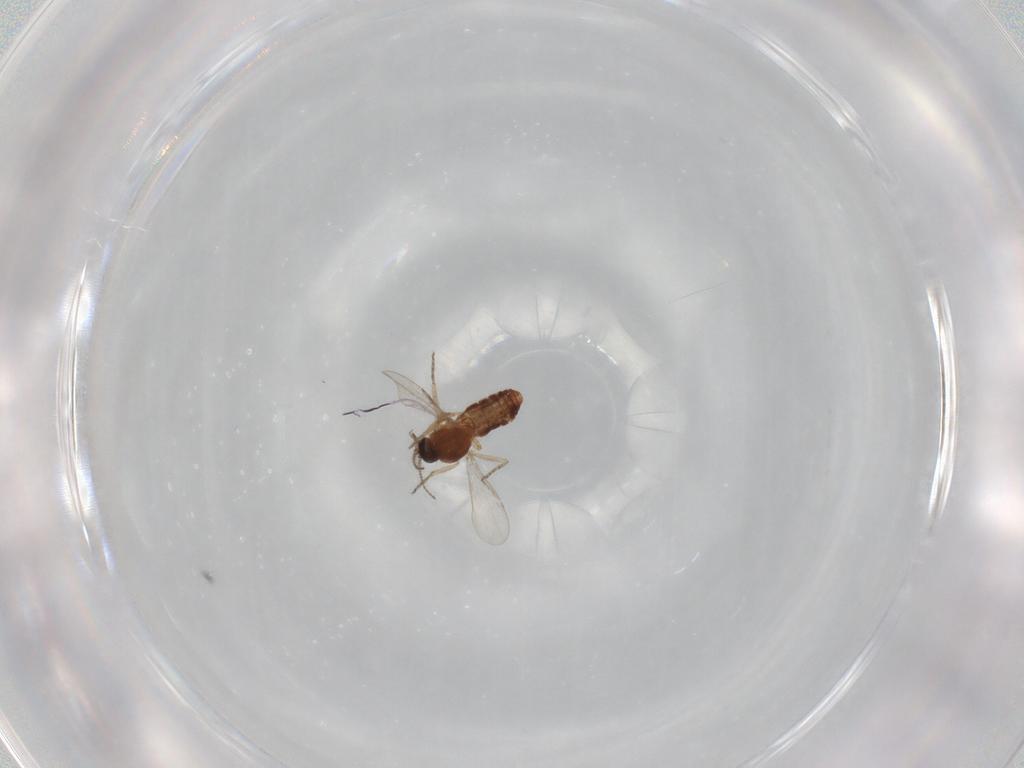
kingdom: Animalia
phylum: Arthropoda
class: Insecta
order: Diptera
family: Ceratopogonidae
